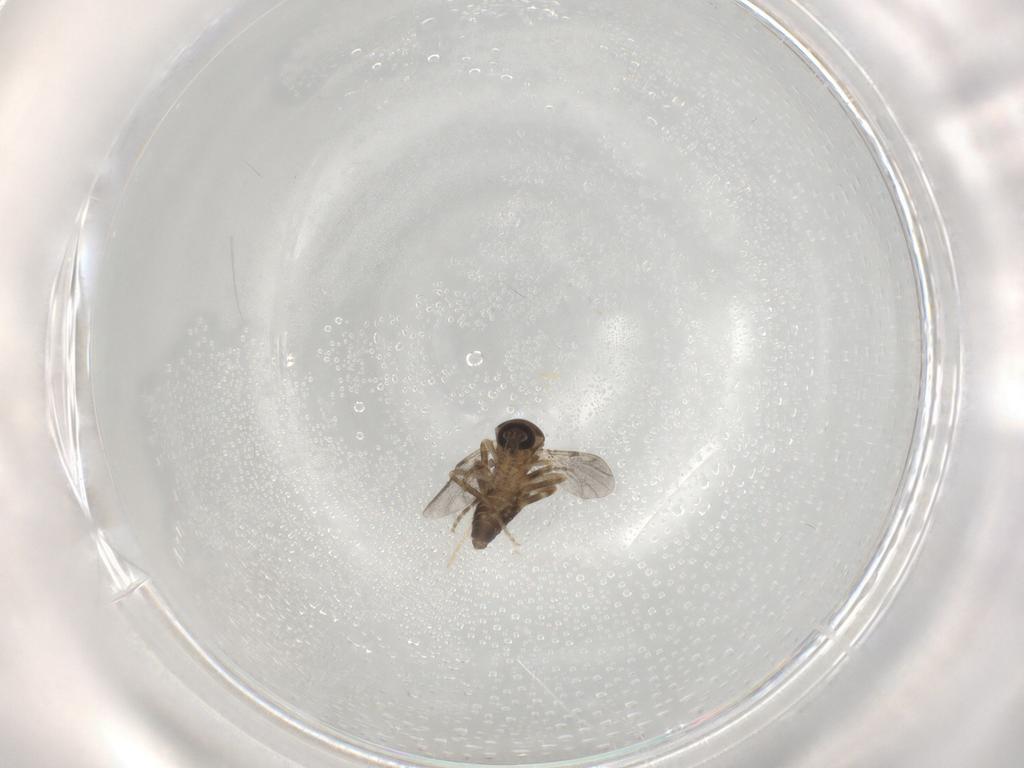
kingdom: Animalia
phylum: Arthropoda
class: Insecta
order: Diptera
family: Ceratopogonidae
